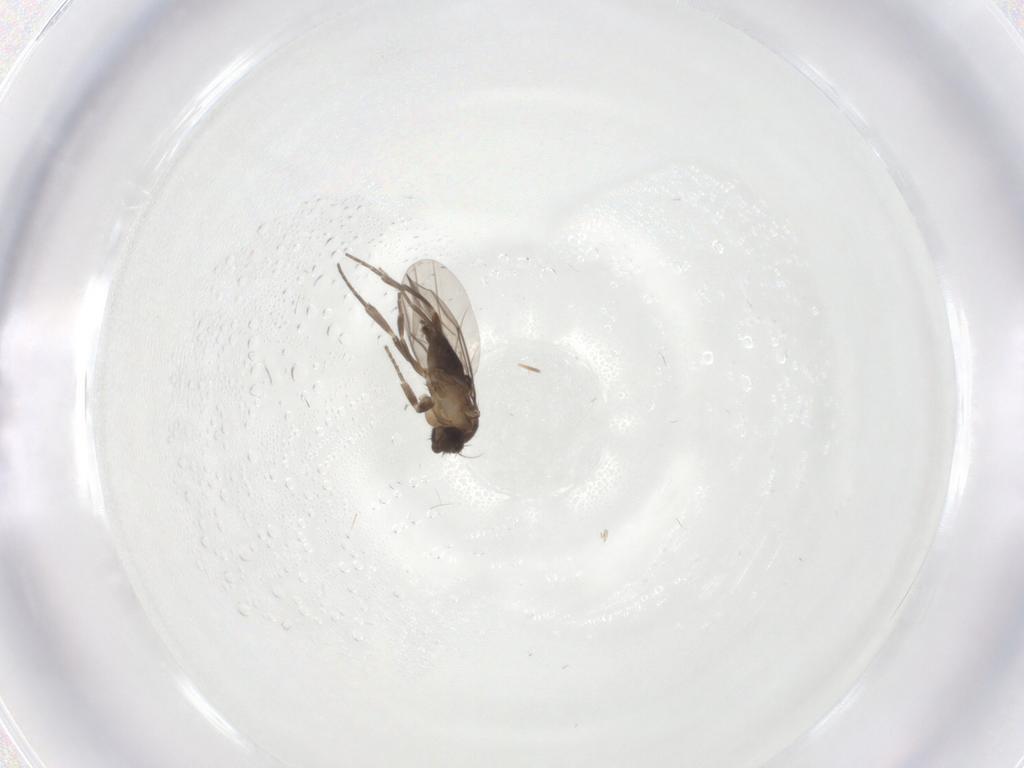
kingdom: Animalia
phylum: Arthropoda
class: Insecta
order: Diptera
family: Phoridae
